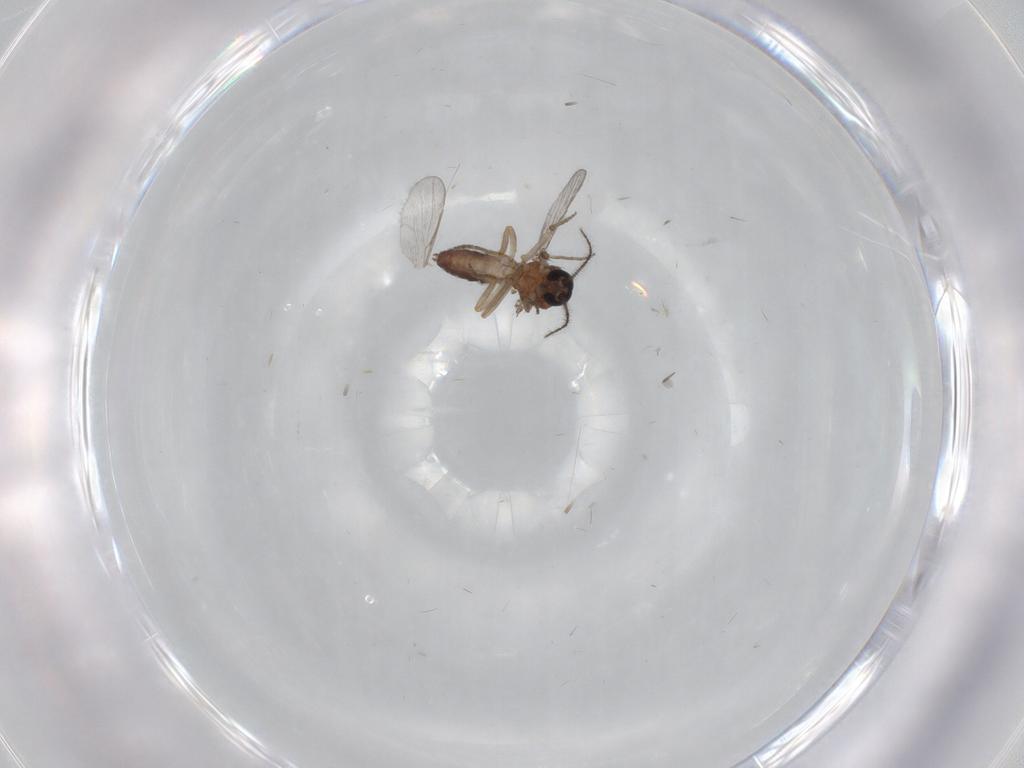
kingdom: Animalia
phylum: Arthropoda
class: Insecta
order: Diptera
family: Ceratopogonidae
